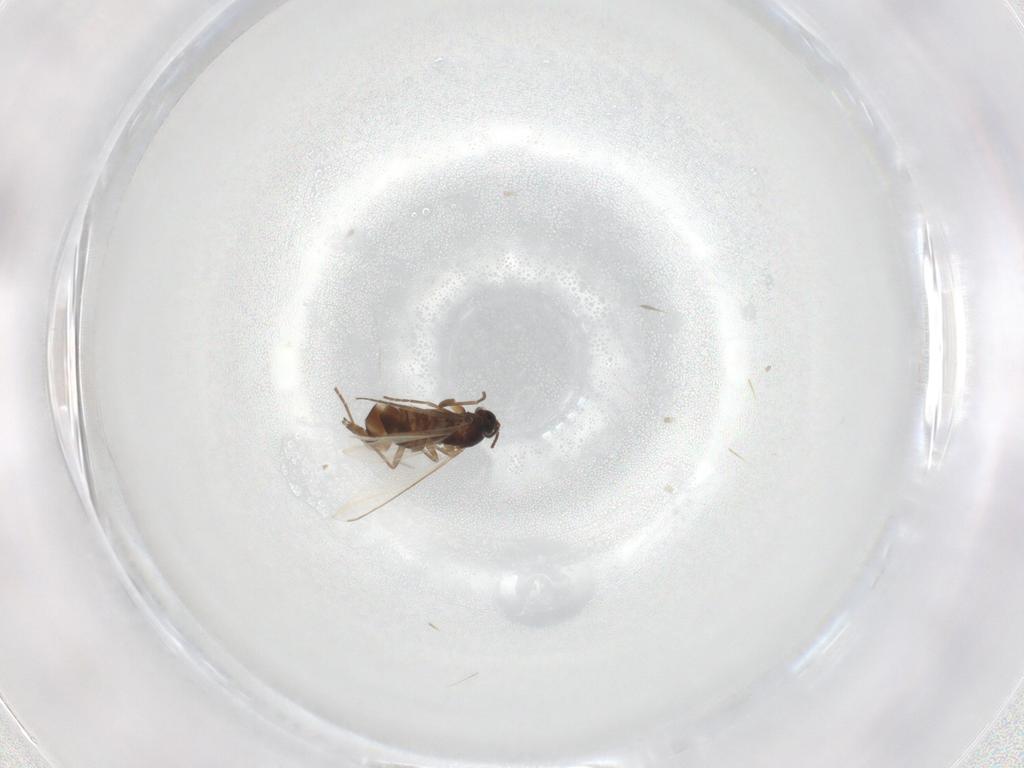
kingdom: Animalia
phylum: Arthropoda
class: Insecta
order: Diptera
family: Sciaridae
